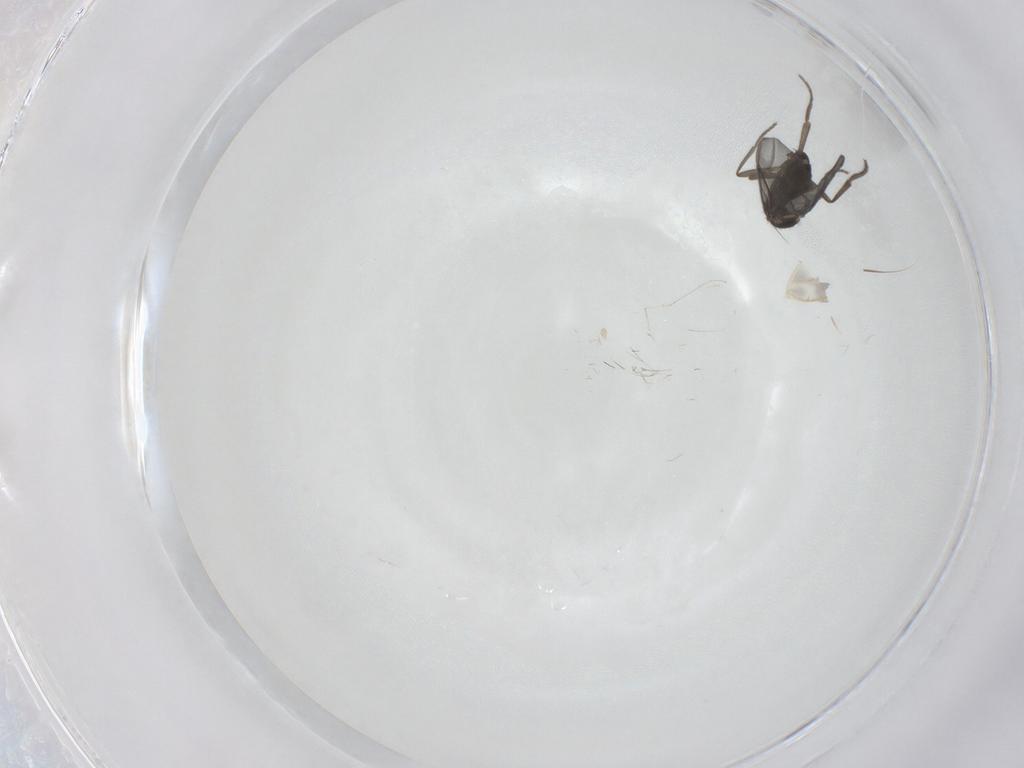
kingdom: Animalia
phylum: Arthropoda
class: Insecta
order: Diptera
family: Phoridae
